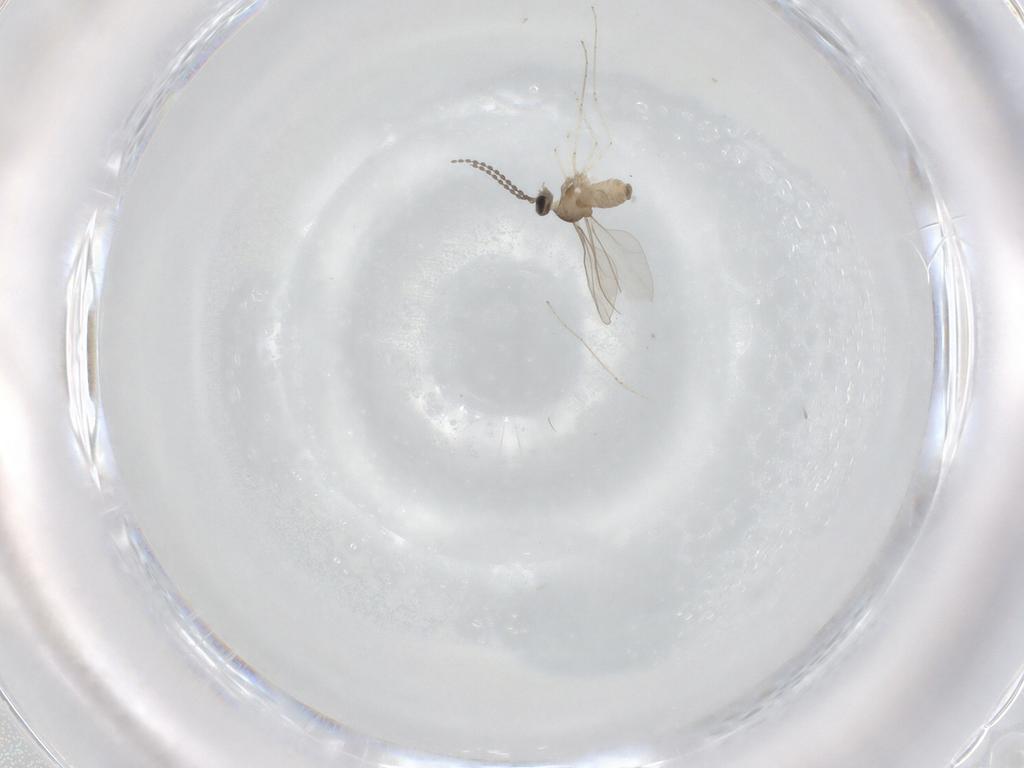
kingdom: Animalia
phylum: Arthropoda
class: Insecta
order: Diptera
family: Cecidomyiidae
